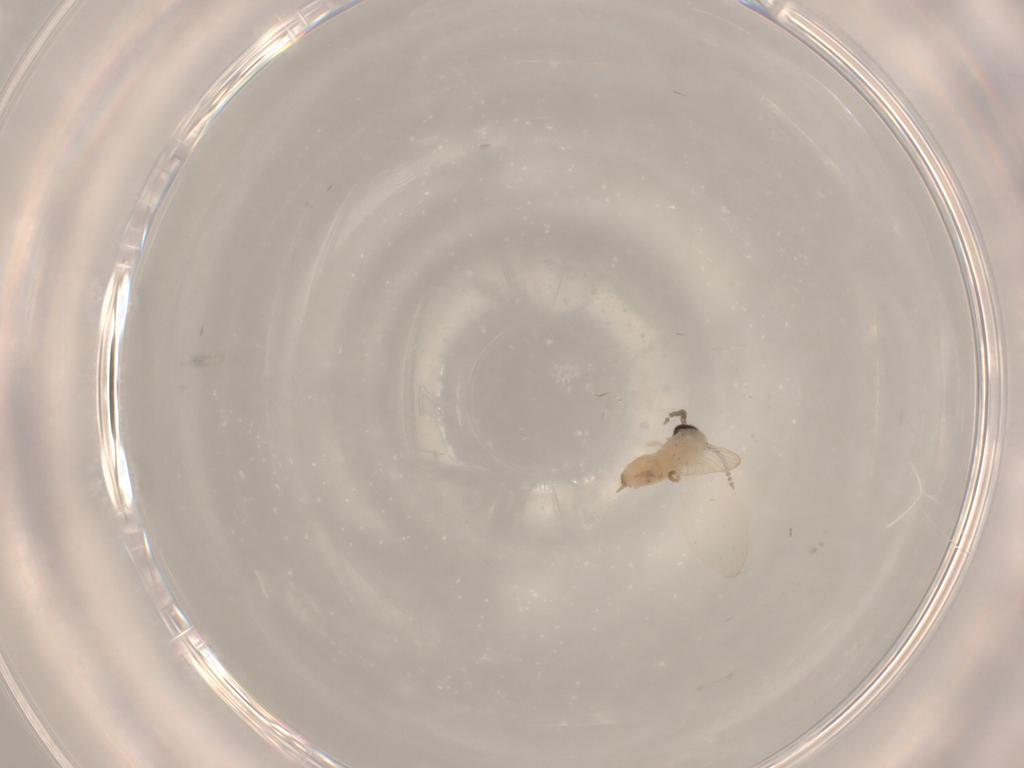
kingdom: Animalia
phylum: Arthropoda
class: Insecta
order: Diptera
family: Psychodidae
